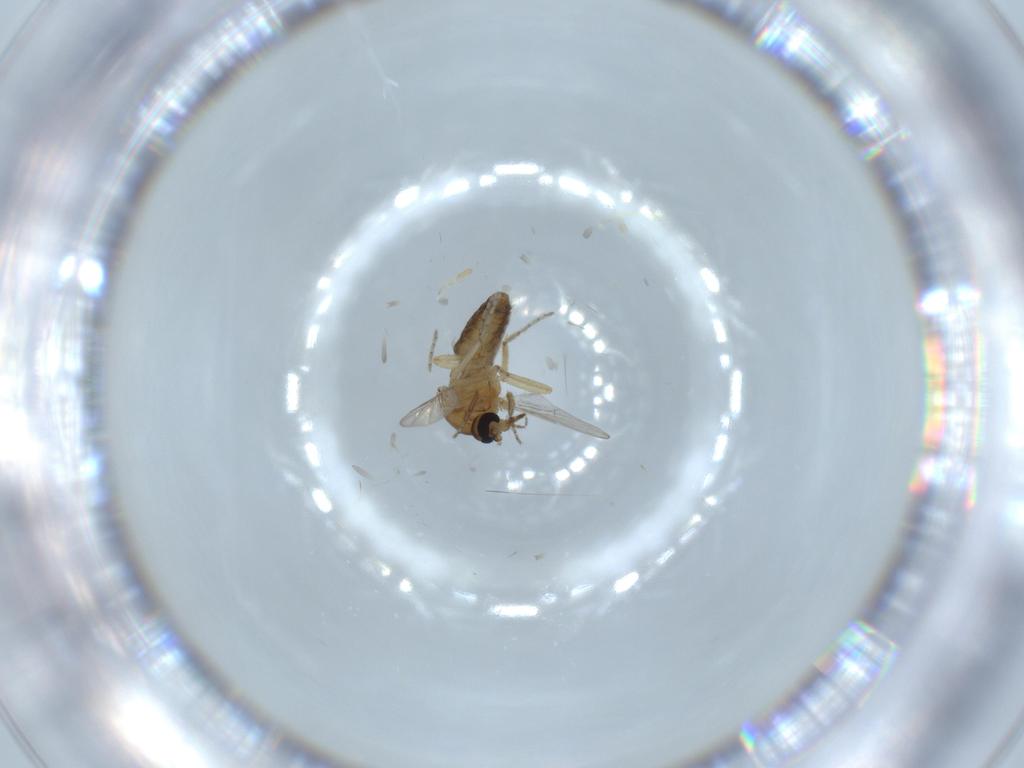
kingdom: Animalia
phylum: Arthropoda
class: Insecta
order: Diptera
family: Ceratopogonidae
